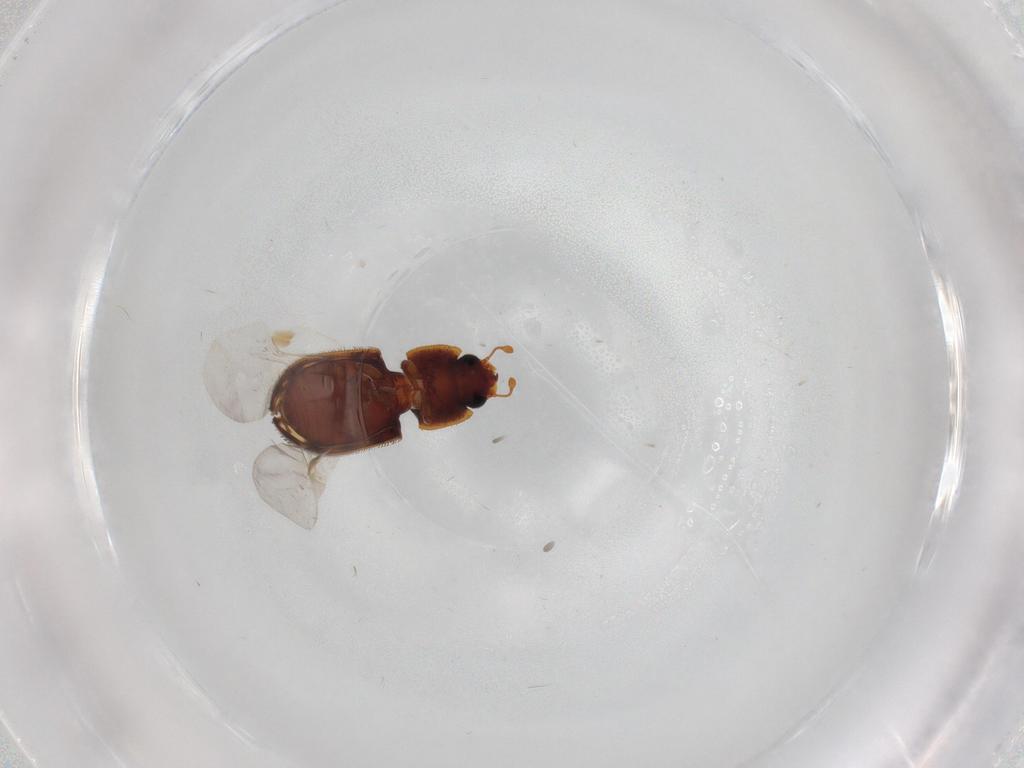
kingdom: Animalia
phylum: Arthropoda
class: Insecta
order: Coleoptera
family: Zopheridae
